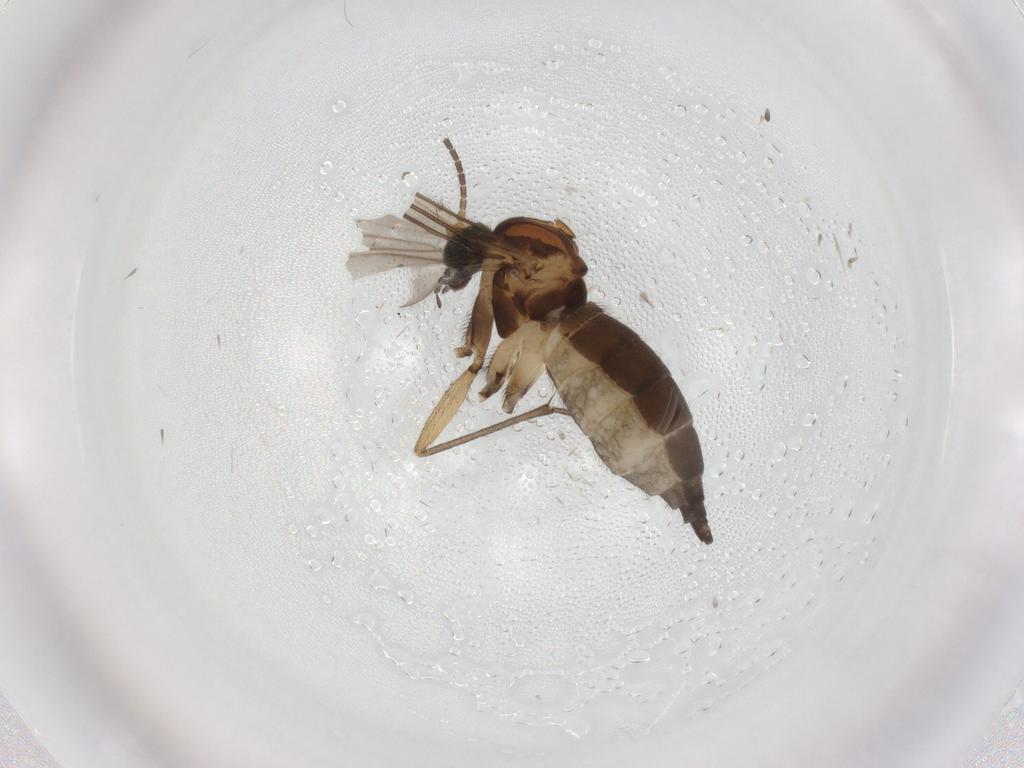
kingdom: Animalia
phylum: Arthropoda
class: Insecta
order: Diptera
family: Sciaridae
